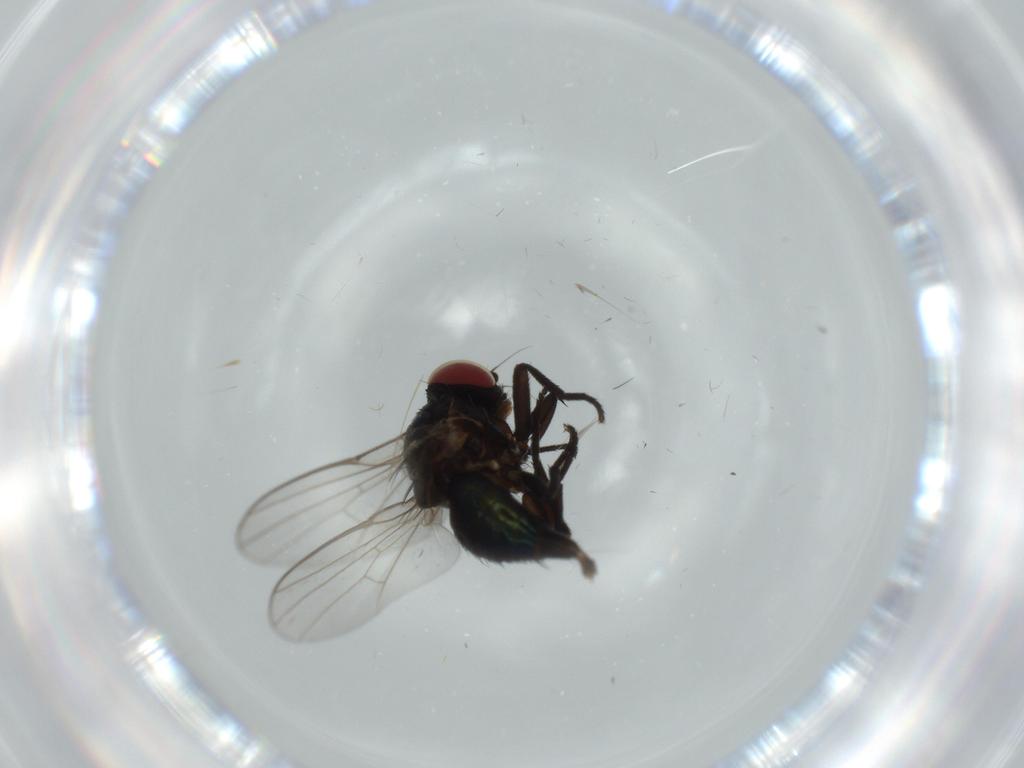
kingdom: Animalia
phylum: Arthropoda
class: Insecta
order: Diptera
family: Agromyzidae
